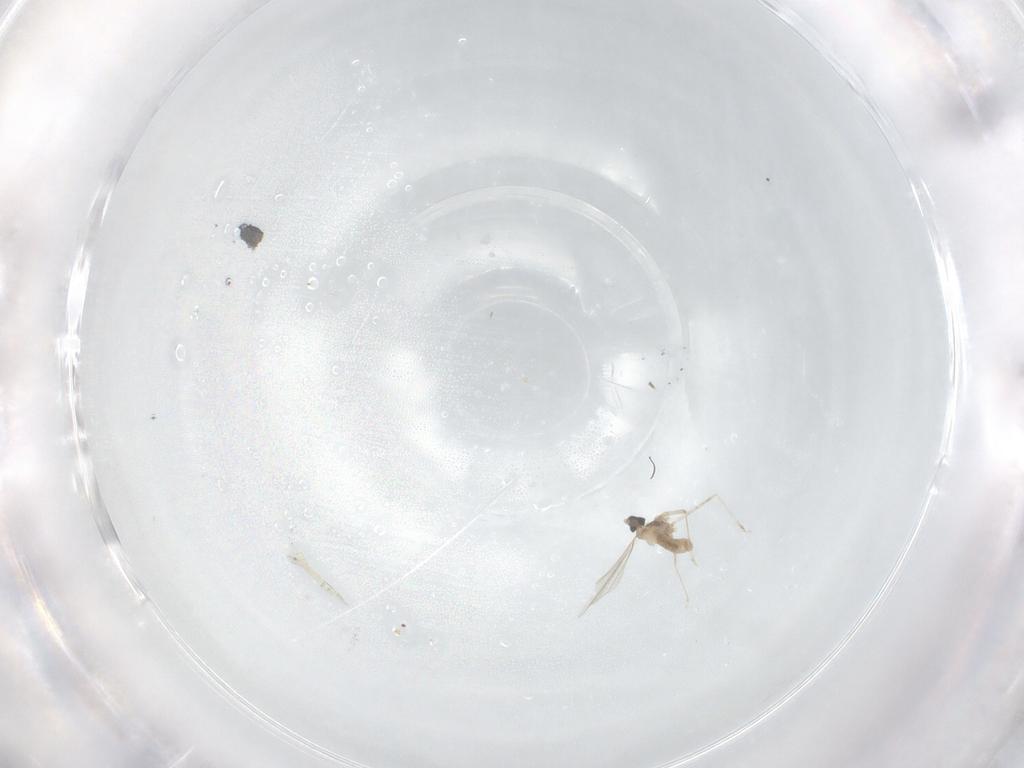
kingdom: Animalia
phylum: Arthropoda
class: Insecta
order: Diptera
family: Cecidomyiidae
